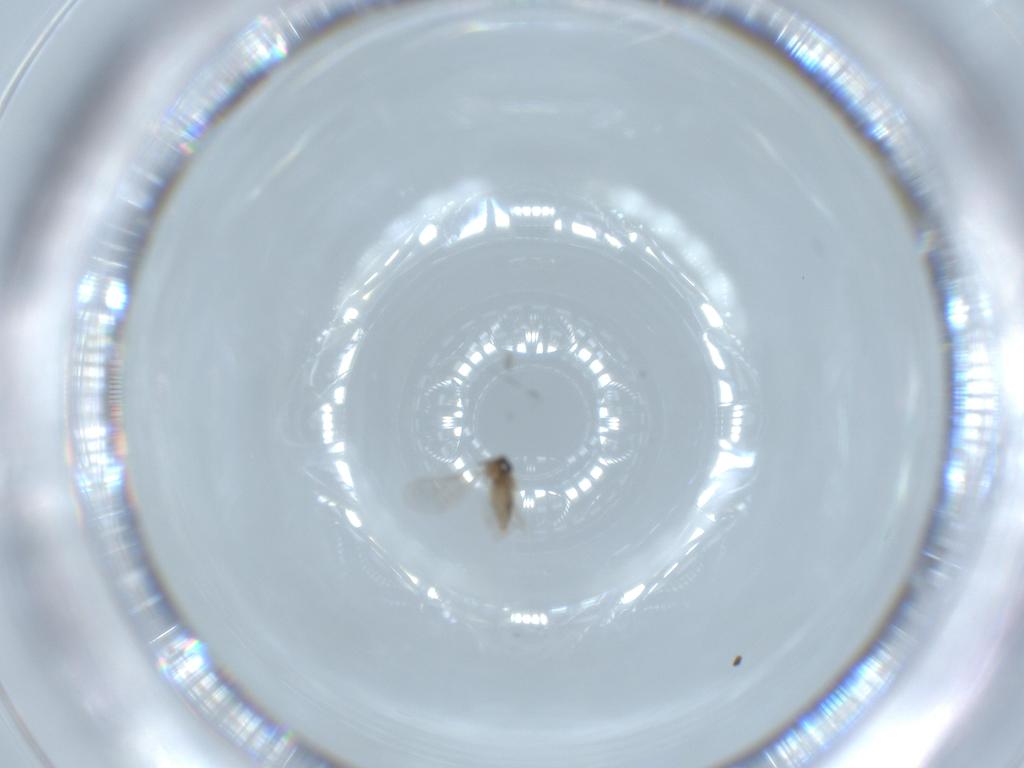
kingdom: Animalia
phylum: Arthropoda
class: Insecta
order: Diptera
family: Cecidomyiidae
